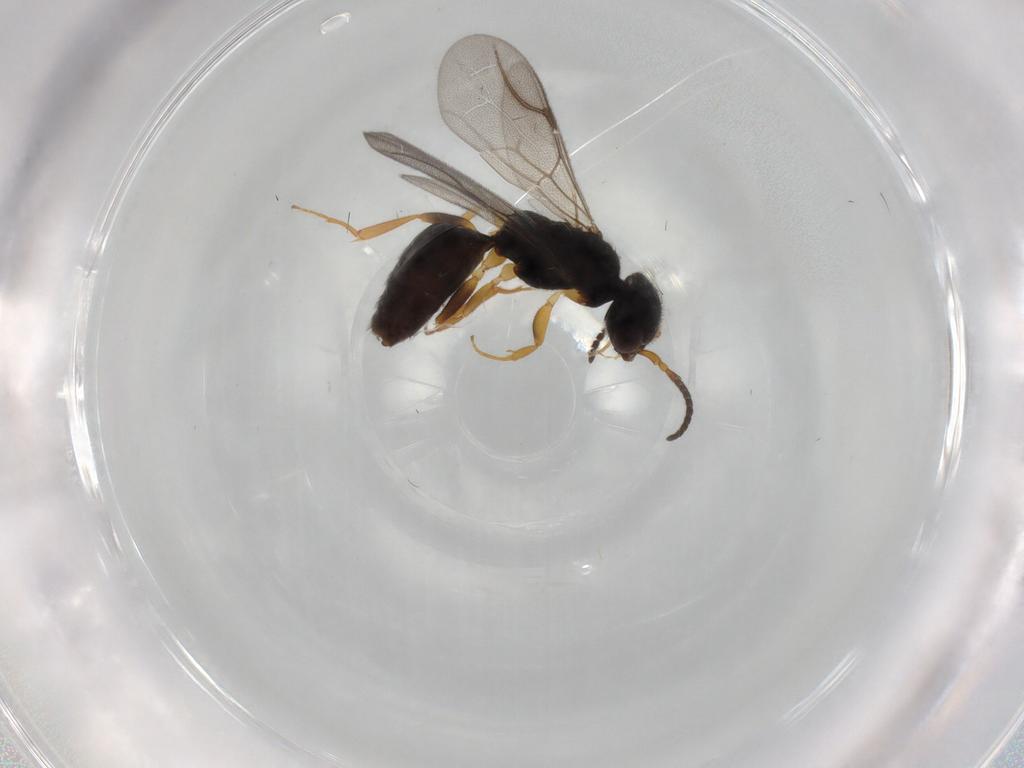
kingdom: Animalia
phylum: Arthropoda
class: Insecta
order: Hymenoptera
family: Bethylidae
